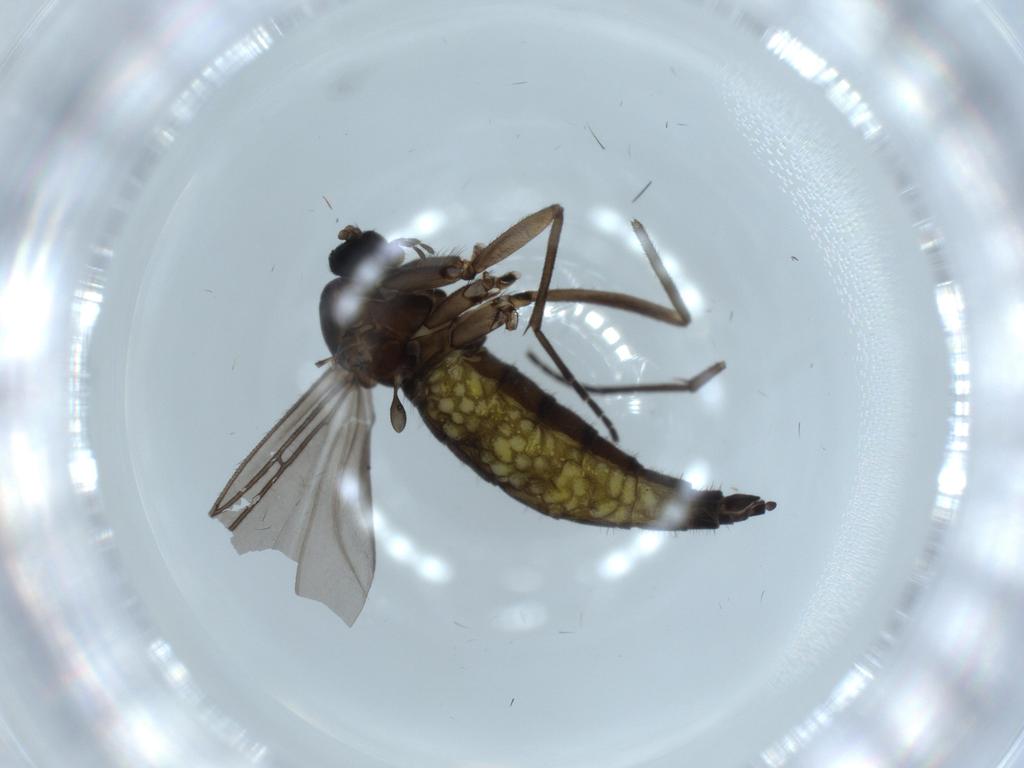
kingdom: Animalia
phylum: Arthropoda
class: Insecta
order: Diptera
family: Sciaridae
